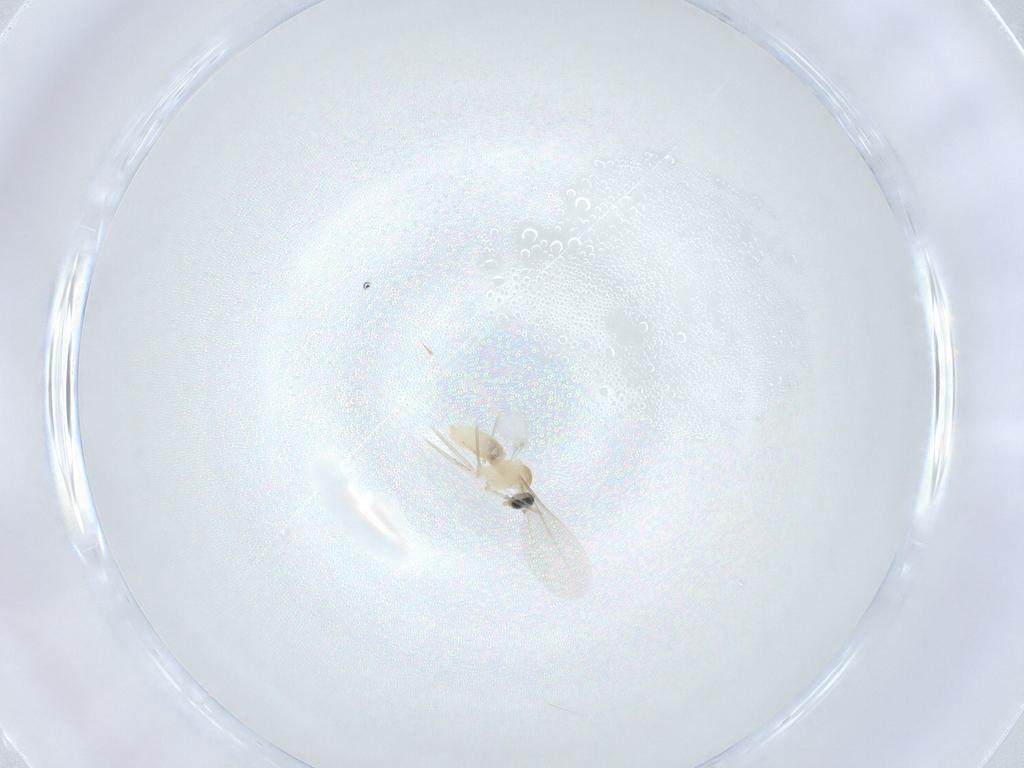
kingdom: Animalia
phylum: Arthropoda
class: Insecta
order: Diptera
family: Cecidomyiidae
